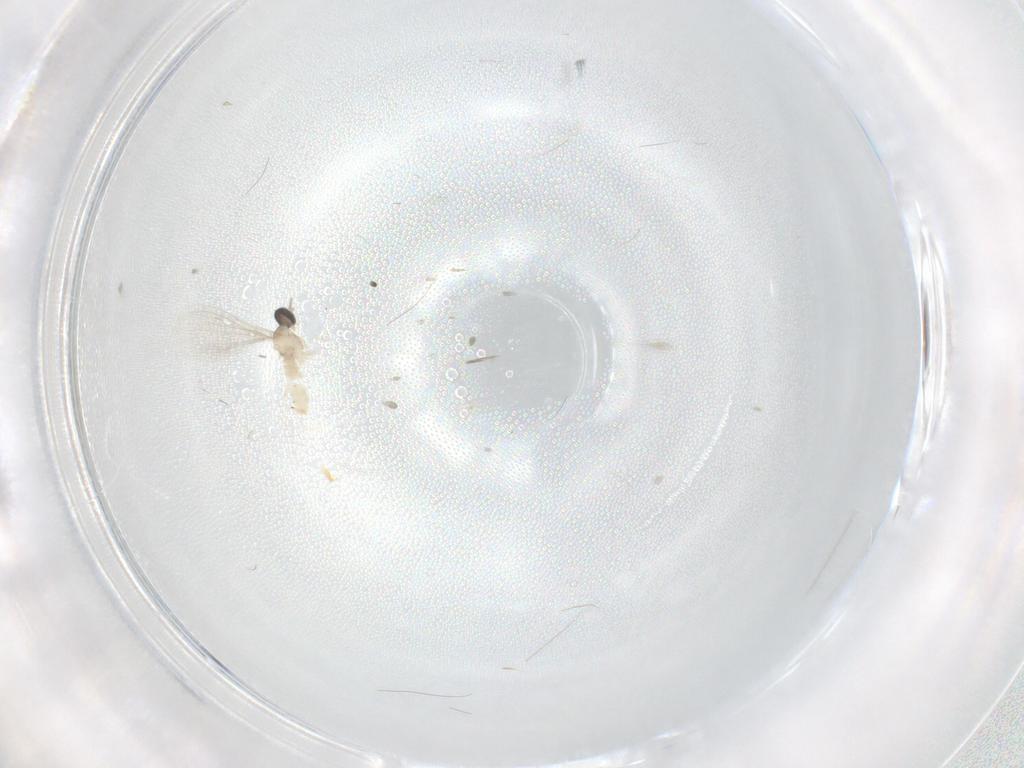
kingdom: Animalia
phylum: Arthropoda
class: Insecta
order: Diptera
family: Cecidomyiidae
